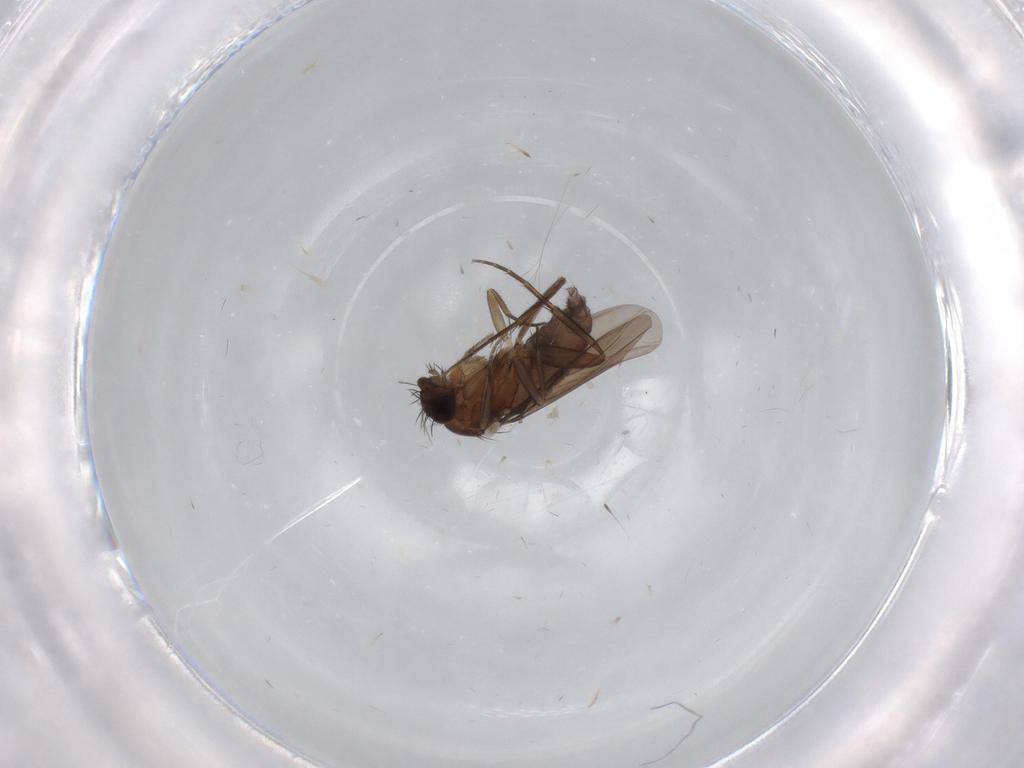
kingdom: Animalia
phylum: Arthropoda
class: Insecta
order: Diptera
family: Phoridae
